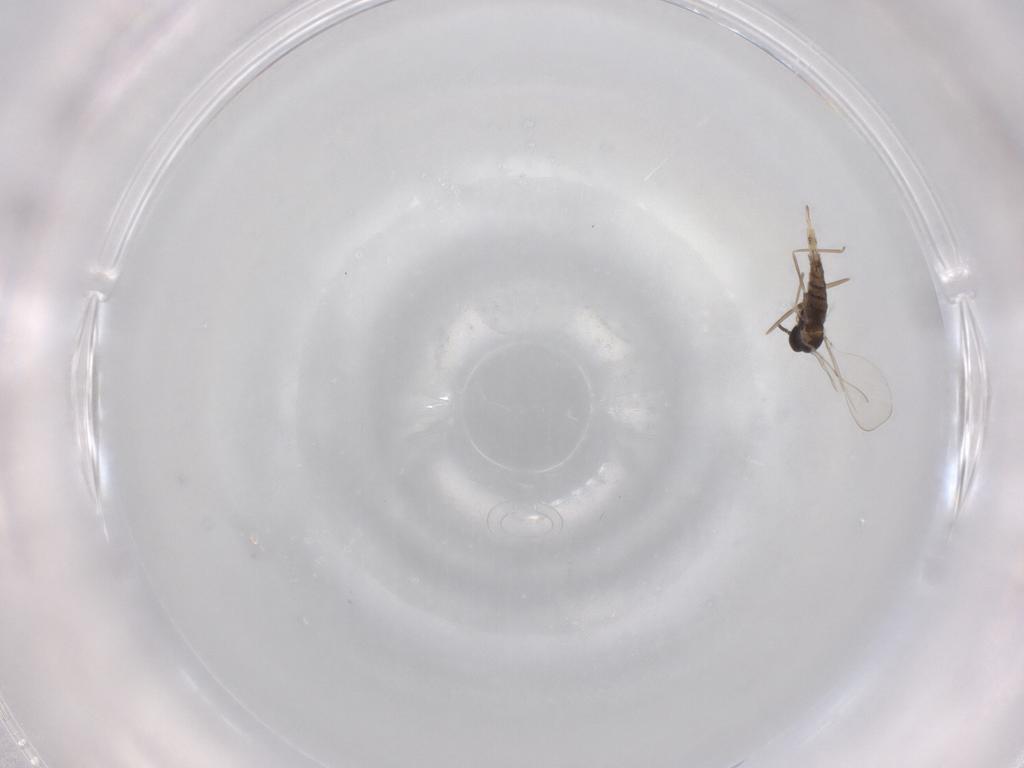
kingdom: Animalia
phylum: Arthropoda
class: Insecta
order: Diptera
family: Cecidomyiidae
